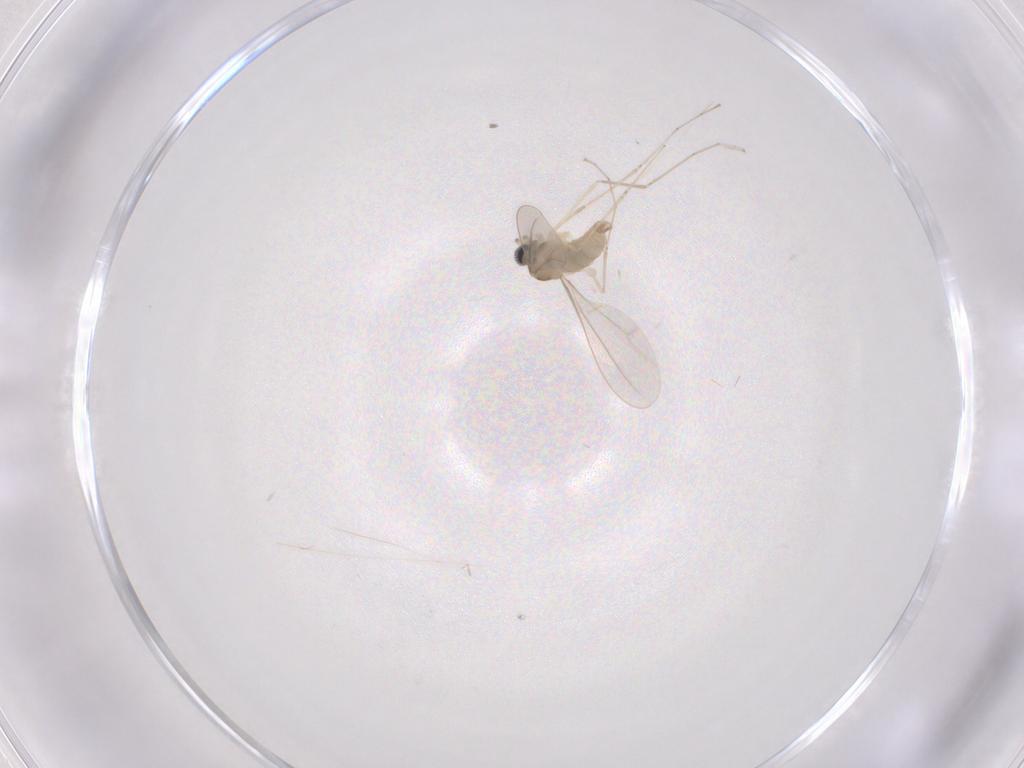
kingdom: Animalia
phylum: Arthropoda
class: Insecta
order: Diptera
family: Cecidomyiidae
